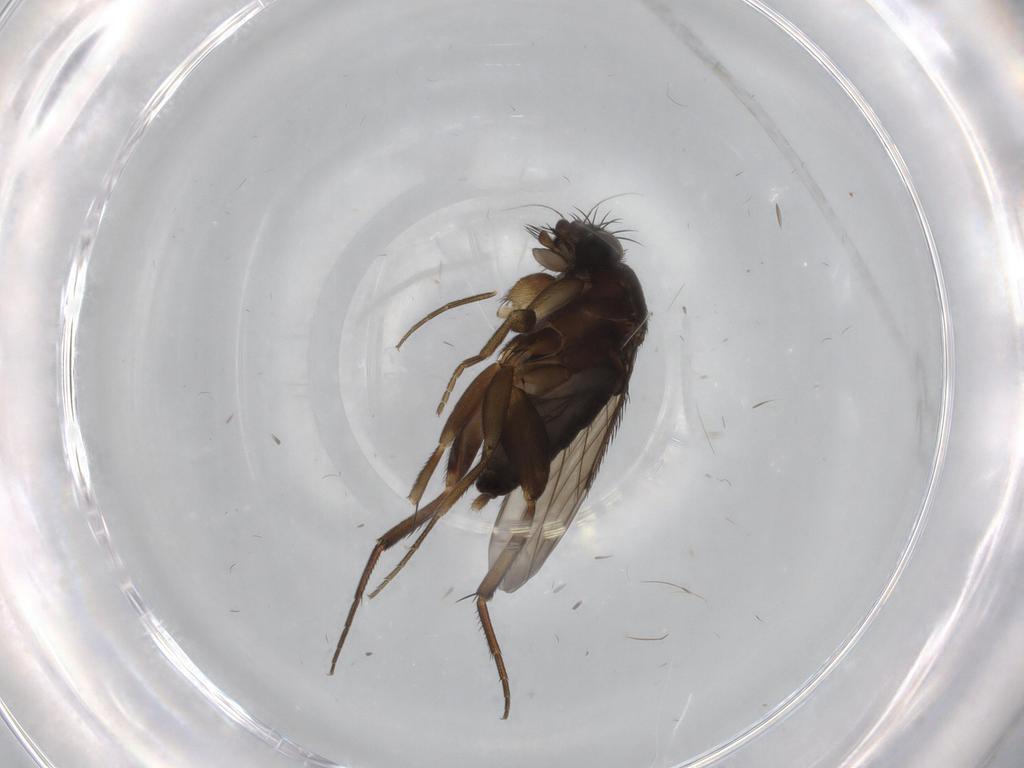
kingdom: Animalia
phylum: Arthropoda
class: Insecta
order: Diptera
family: Phoridae
